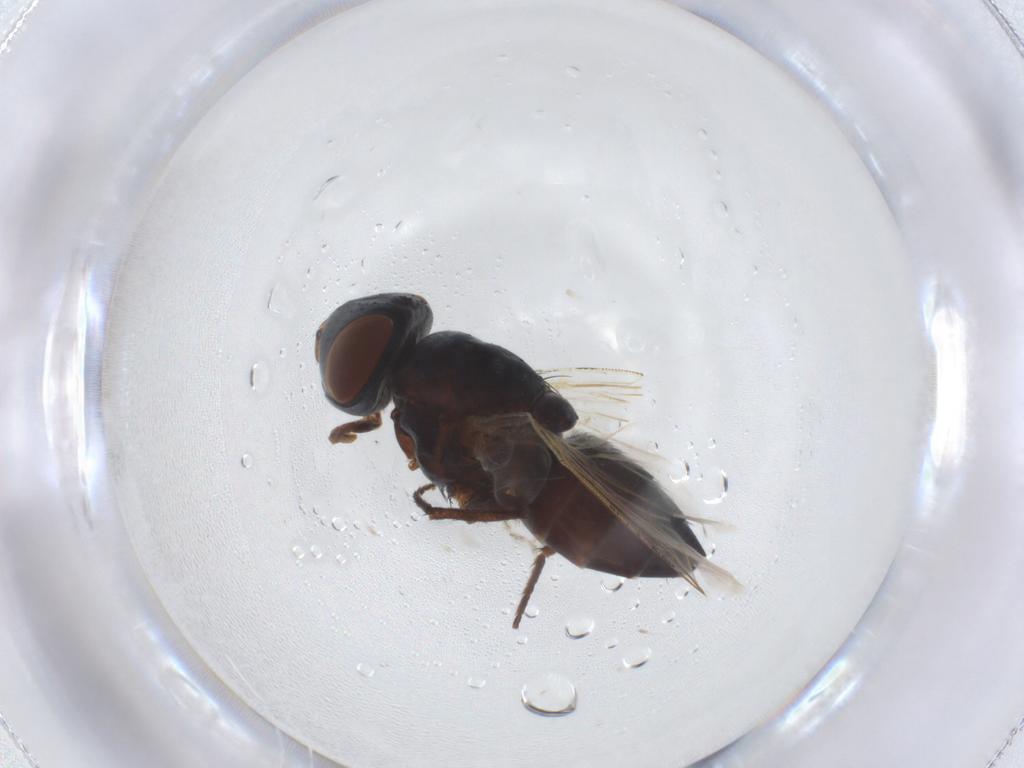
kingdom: Animalia
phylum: Arthropoda
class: Insecta
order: Diptera
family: Sarcophagidae
